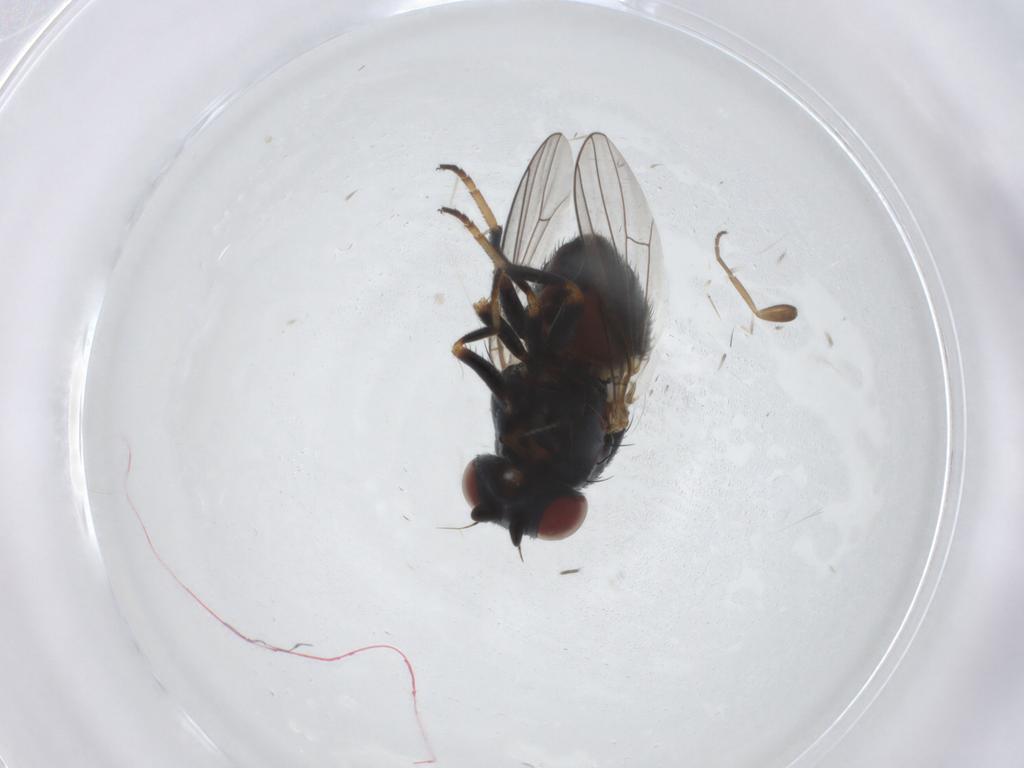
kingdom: Animalia
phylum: Arthropoda
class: Insecta
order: Diptera
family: Chamaemyiidae
